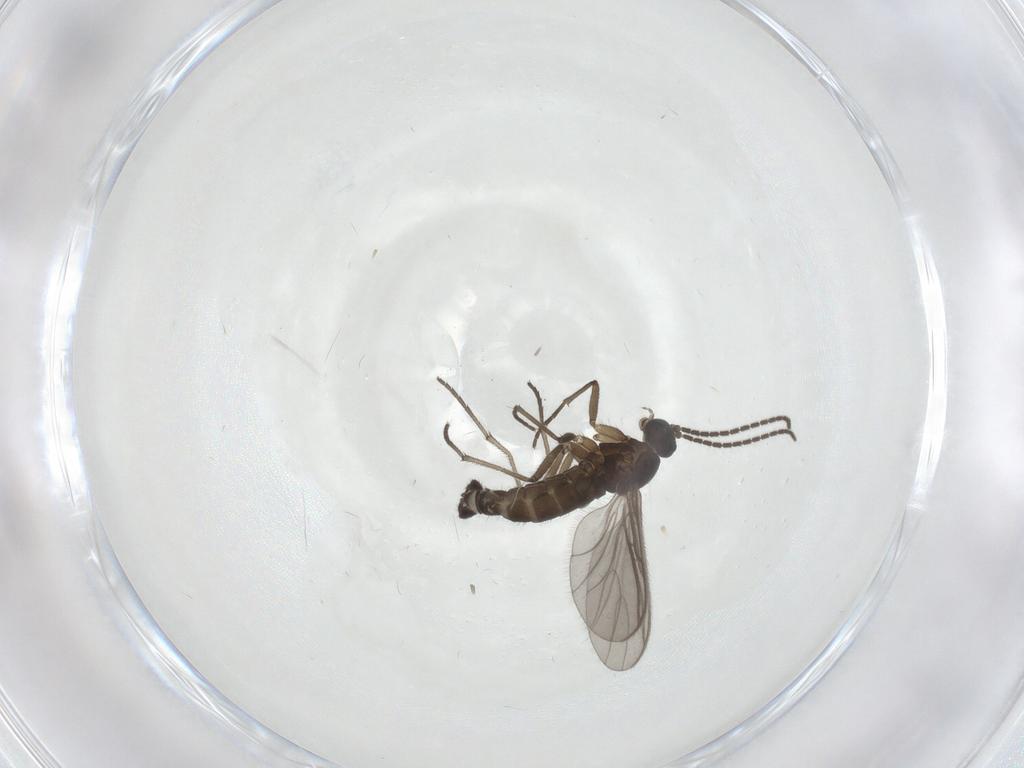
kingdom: Animalia
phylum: Arthropoda
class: Insecta
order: Diptera
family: Sciaridae
